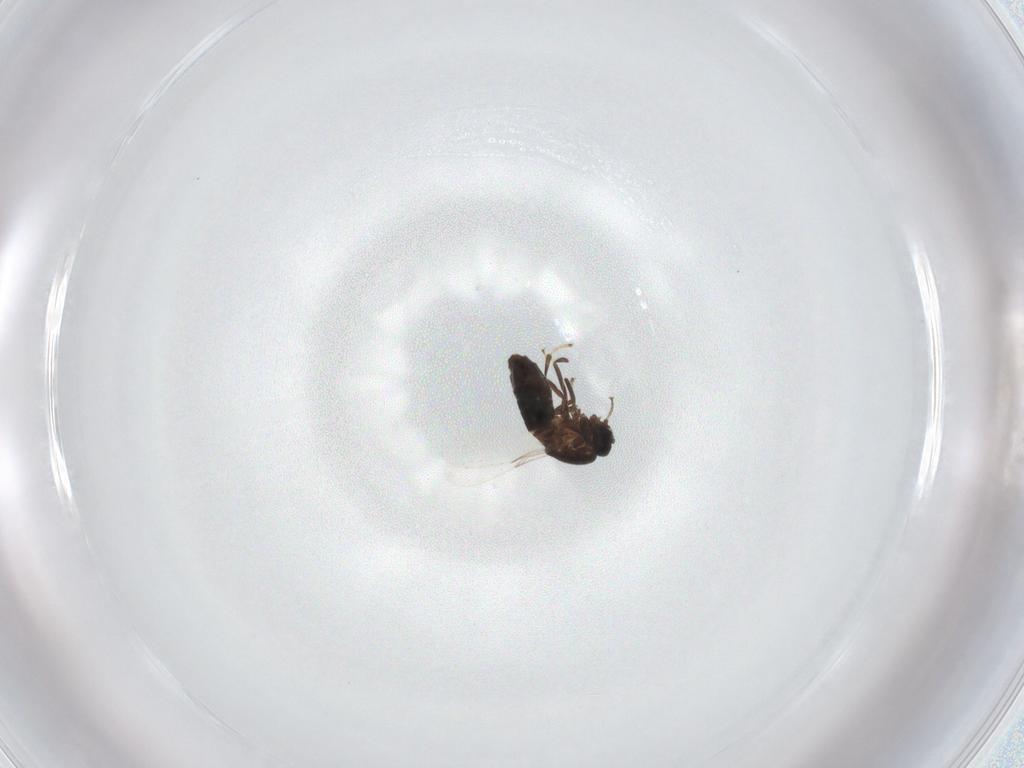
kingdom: Animalia
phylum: Arthropoda
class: Insecta
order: Diptera
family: Scatopsidae
